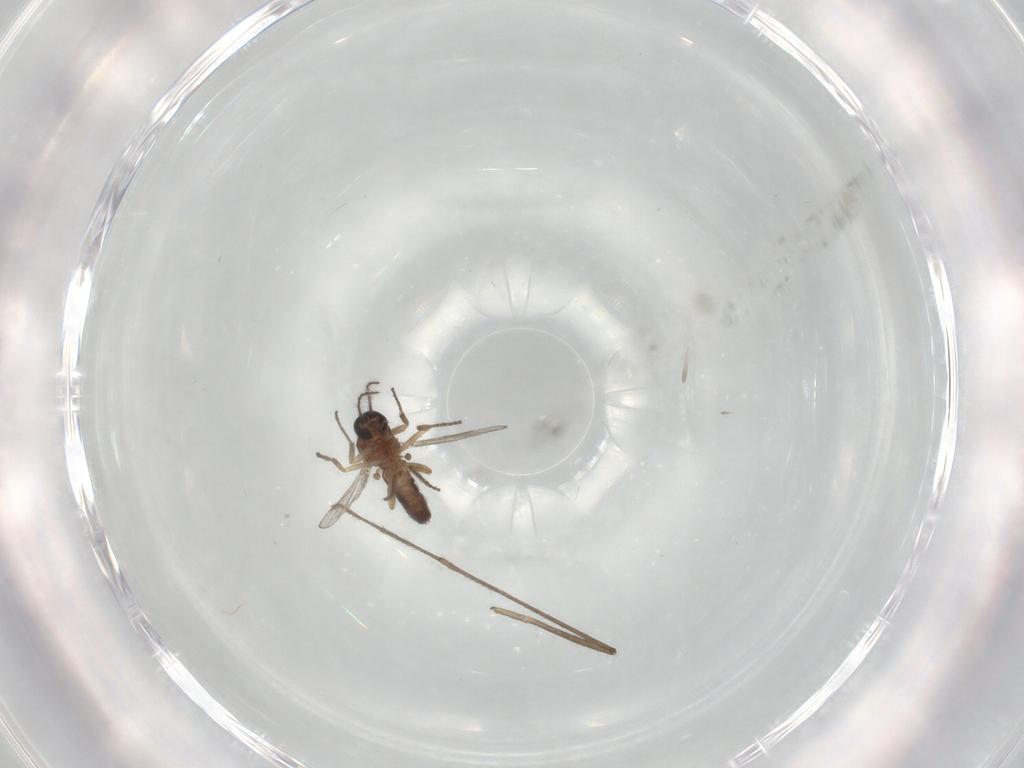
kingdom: Animalia
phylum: Arthropoda
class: Insecta
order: Diptera
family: Ceratopogonidae
